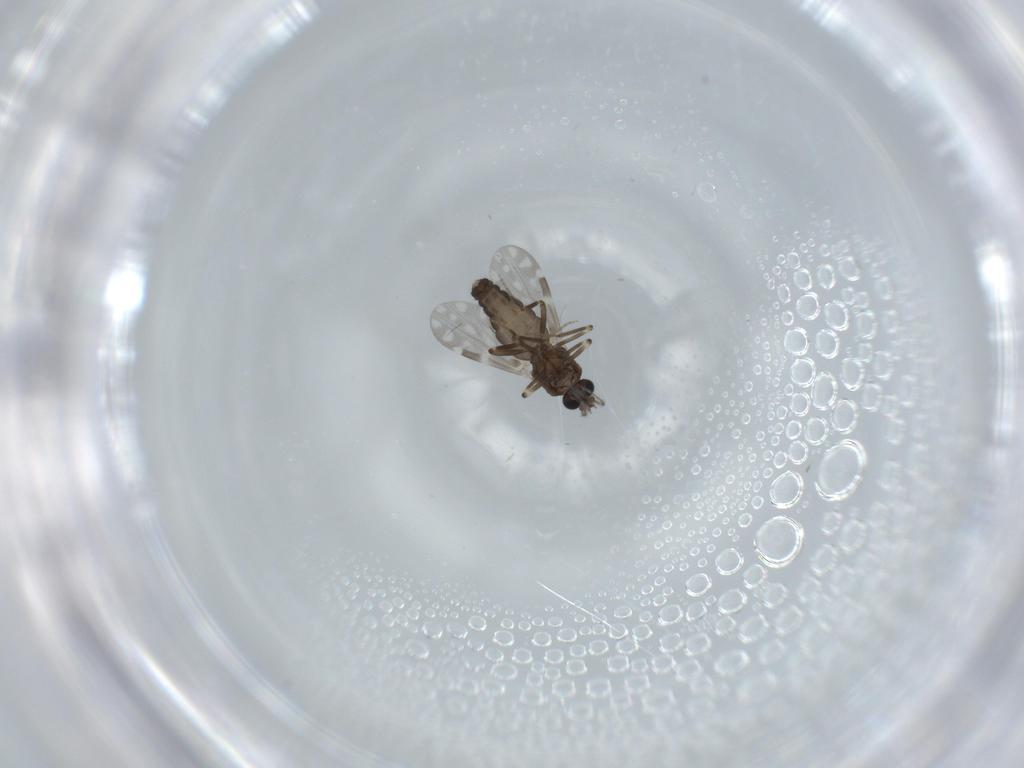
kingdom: Animalia
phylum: Arthropoda
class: Insecta
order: Diptera
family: Ceratopogonidae
